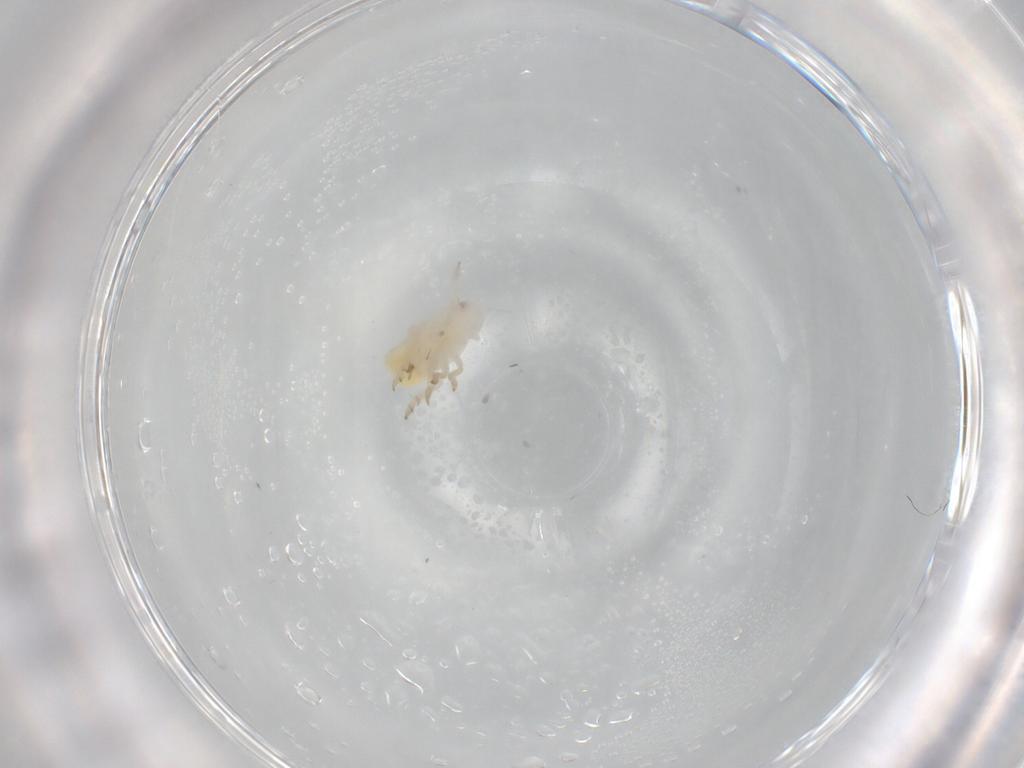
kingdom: Animalia
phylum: Arthropoda
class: Insecta
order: Hemiptera
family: Flatidae
